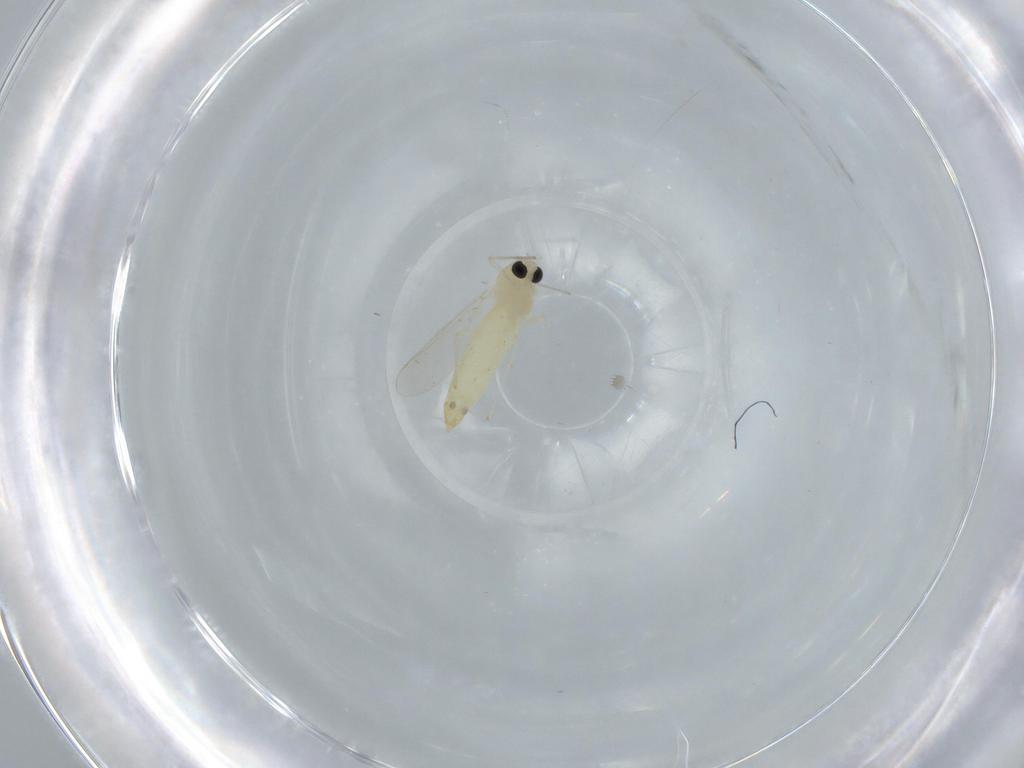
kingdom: Animalia
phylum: Arthropoda
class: Insecta
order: Diptera
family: Chironomidae
